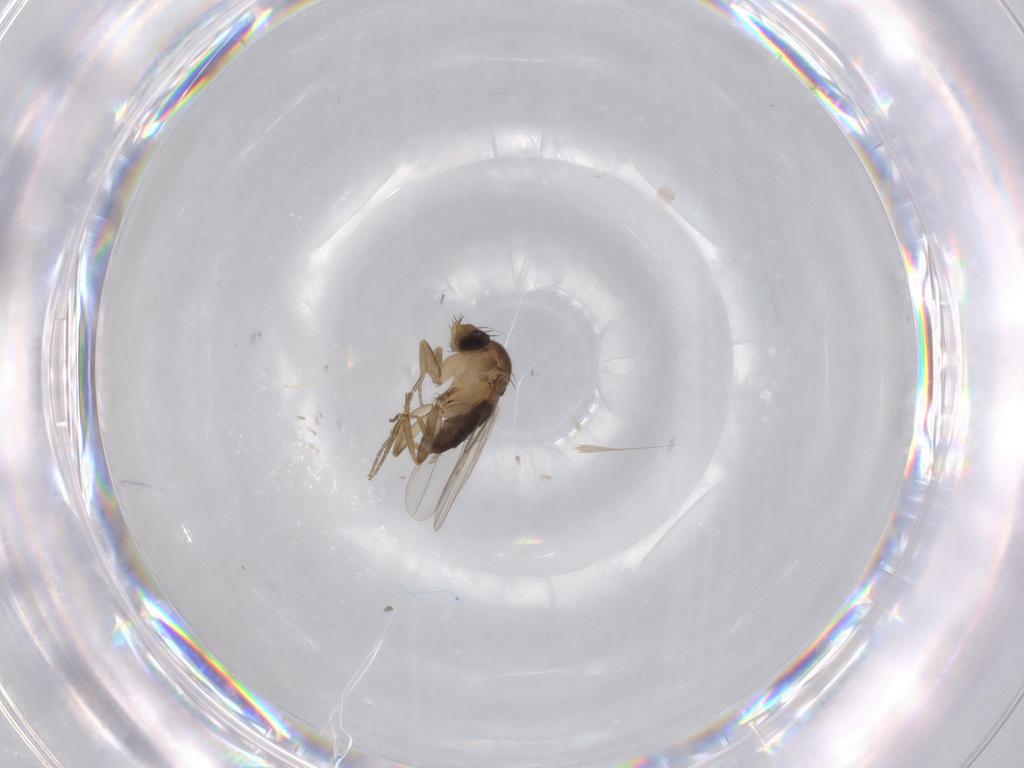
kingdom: Animalia
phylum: Arthropoda
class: Insecta
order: Diptera
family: Phoridae
